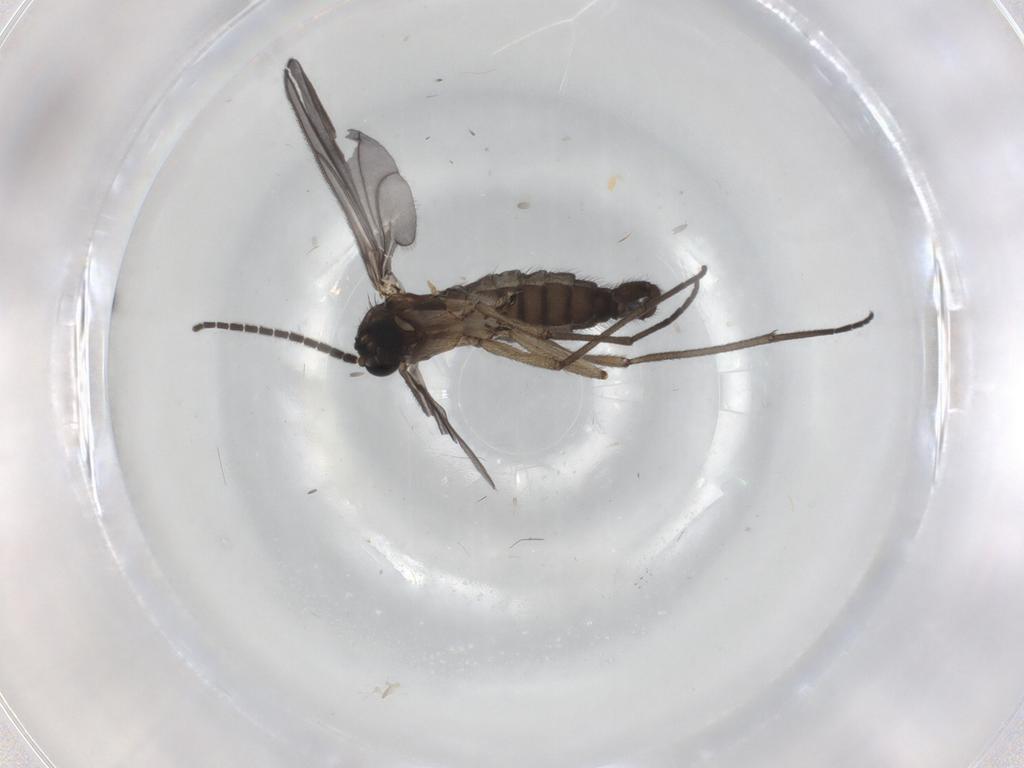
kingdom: Animalia
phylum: Arthropoda
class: Insecta
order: Diptera
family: Sciaridae
